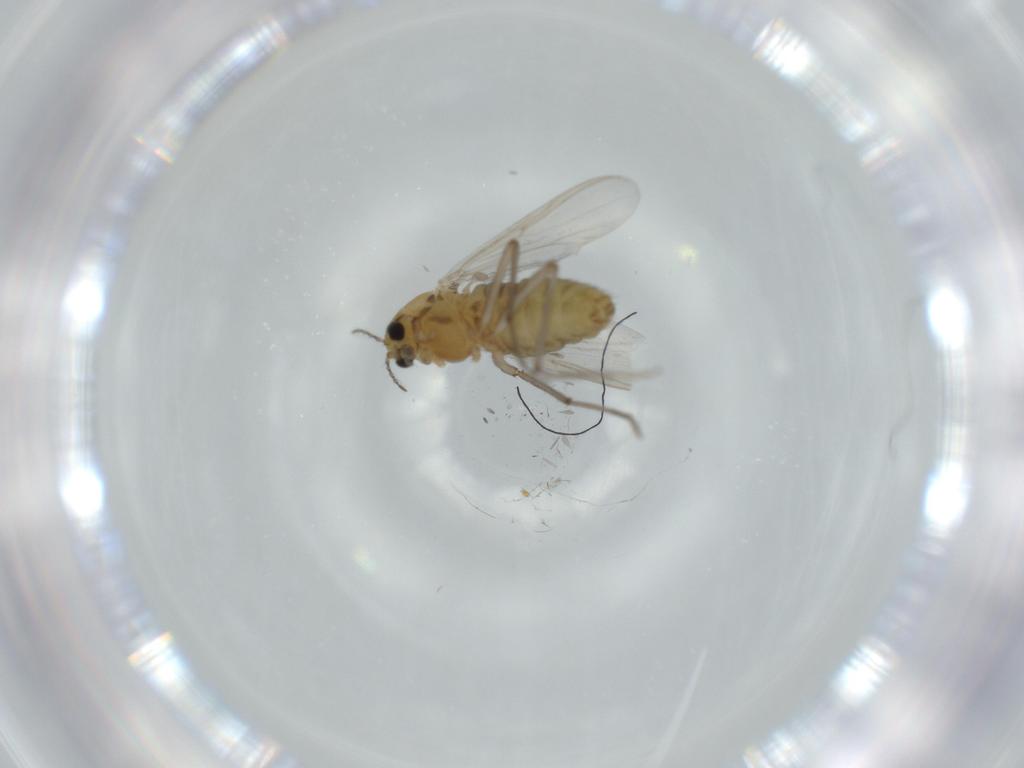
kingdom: Animalia
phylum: Arthropoda
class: Insecta
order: Diptera
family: Chironomidae
